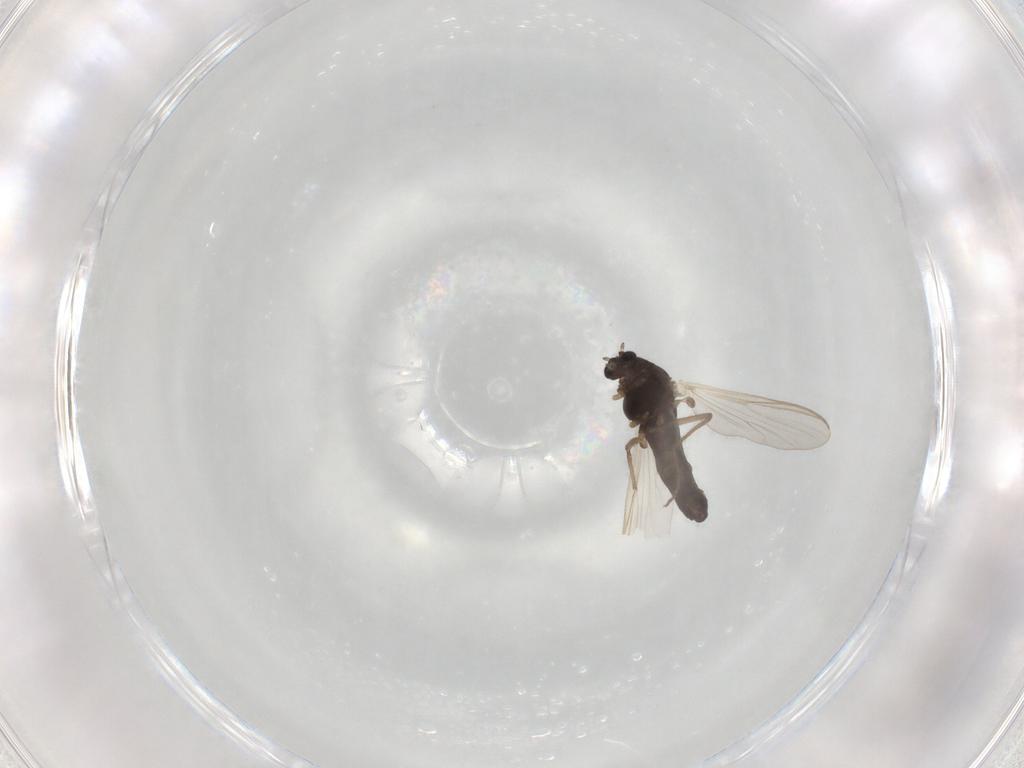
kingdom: Animalia
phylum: Arthropoda
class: Insecta
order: Diptera
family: Chironomidae
